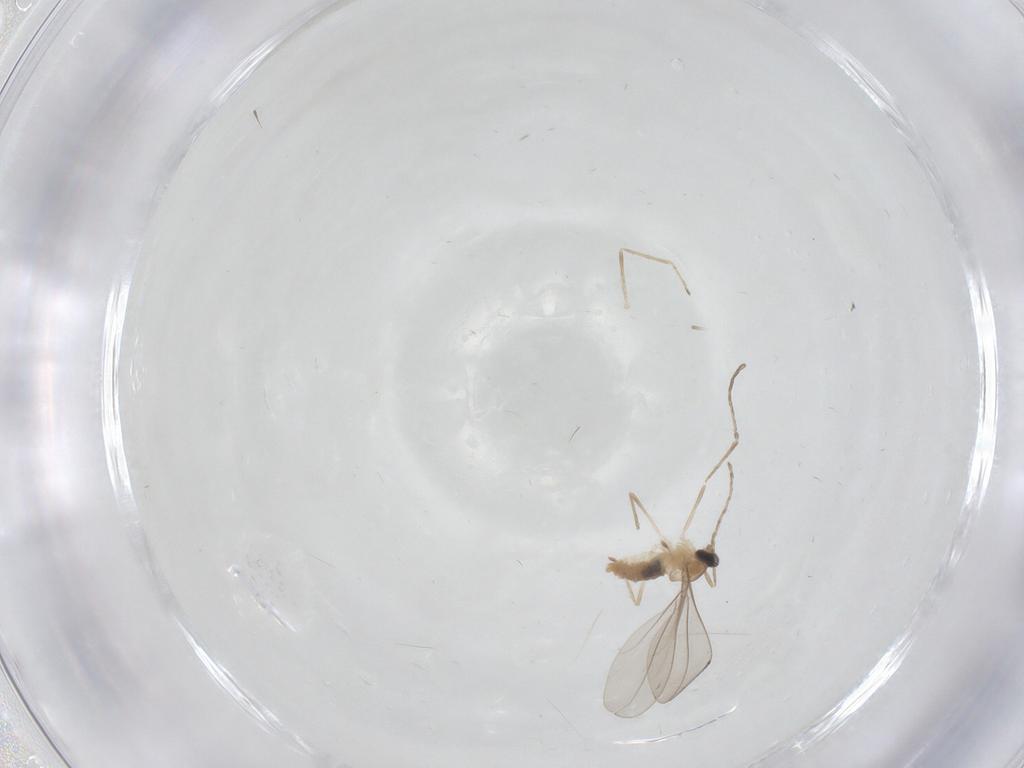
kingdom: Animalia
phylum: Arthropoda
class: Insecta
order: Diptera
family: Cecidomyiidae
